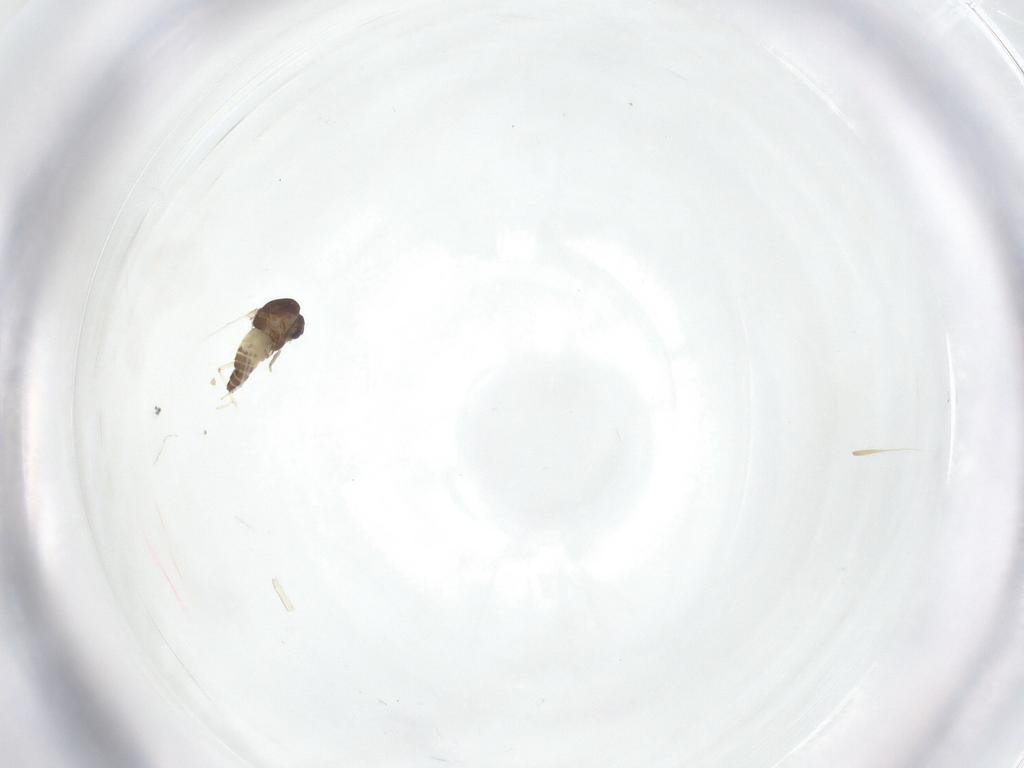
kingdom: Animalia
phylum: Arthropoda
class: Insecta
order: Diptera
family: Chironomidae
